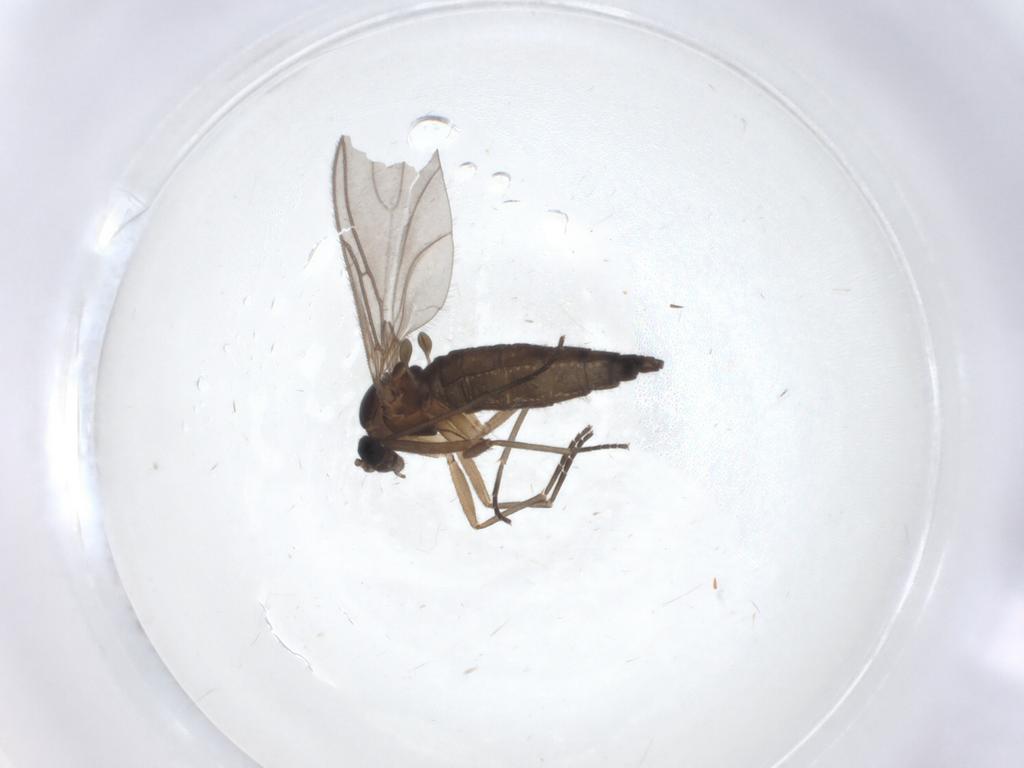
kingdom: Animalia
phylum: Arthropoda
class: Insecta
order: Diptera
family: Sciaridae
